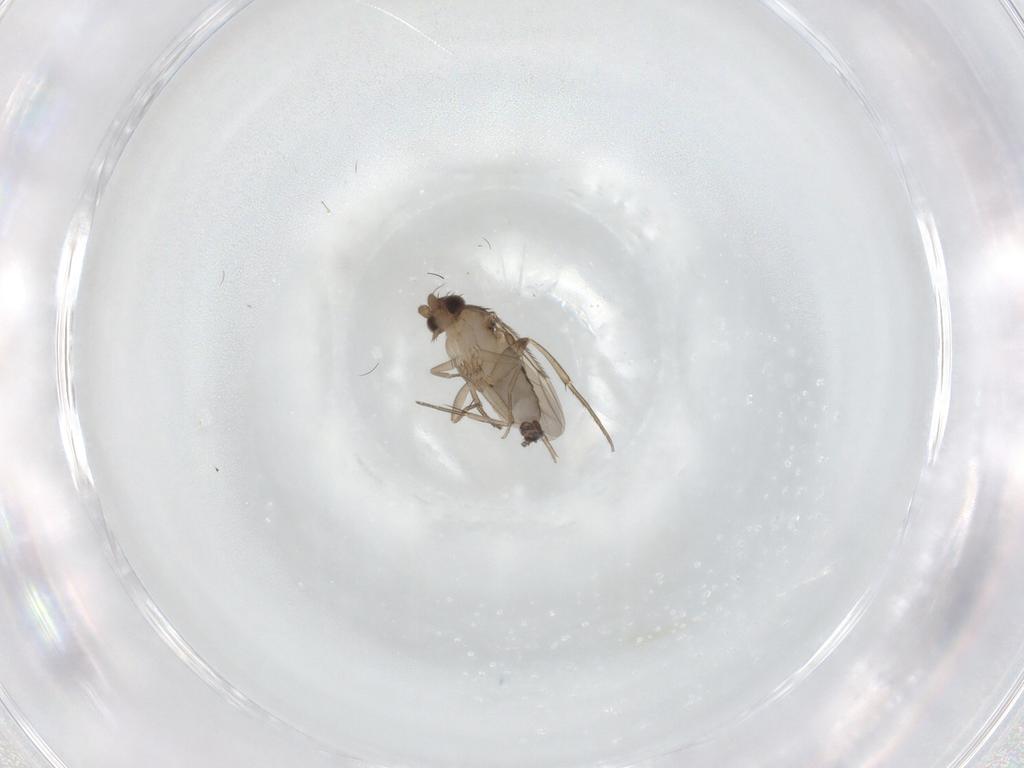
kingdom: Animalia
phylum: Arthropoda
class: Insecta
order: Diptera
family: Phoridae
